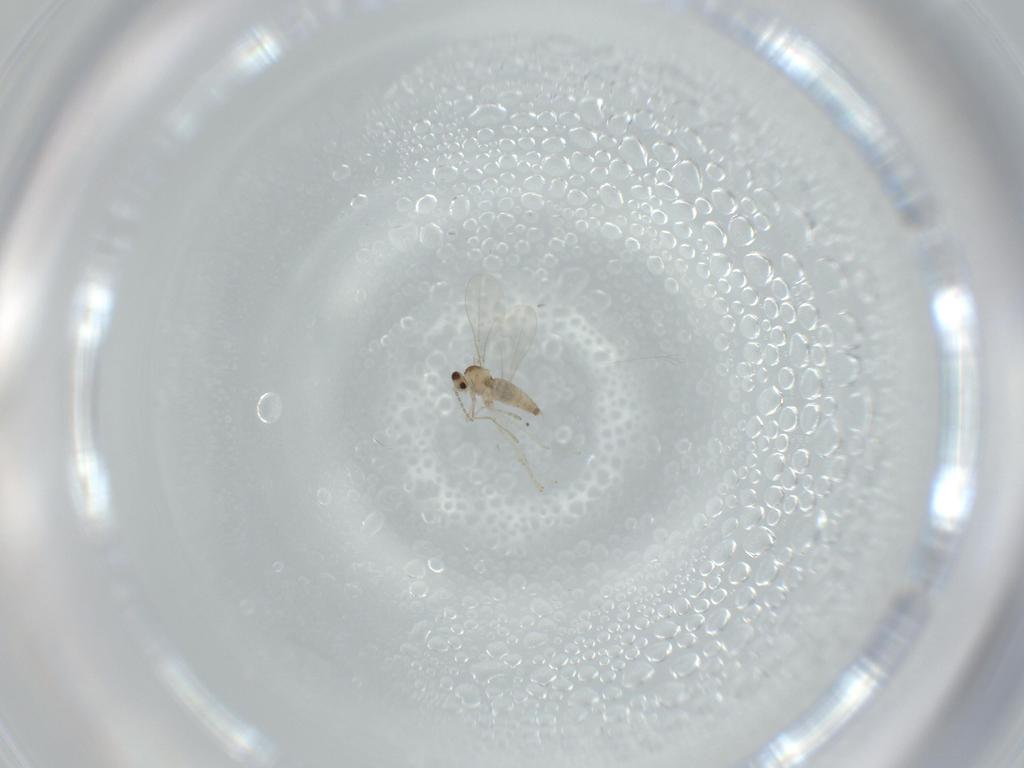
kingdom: Animalia
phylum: Arthropoda
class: Insecta
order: Diptera
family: Cecidomyiidae
